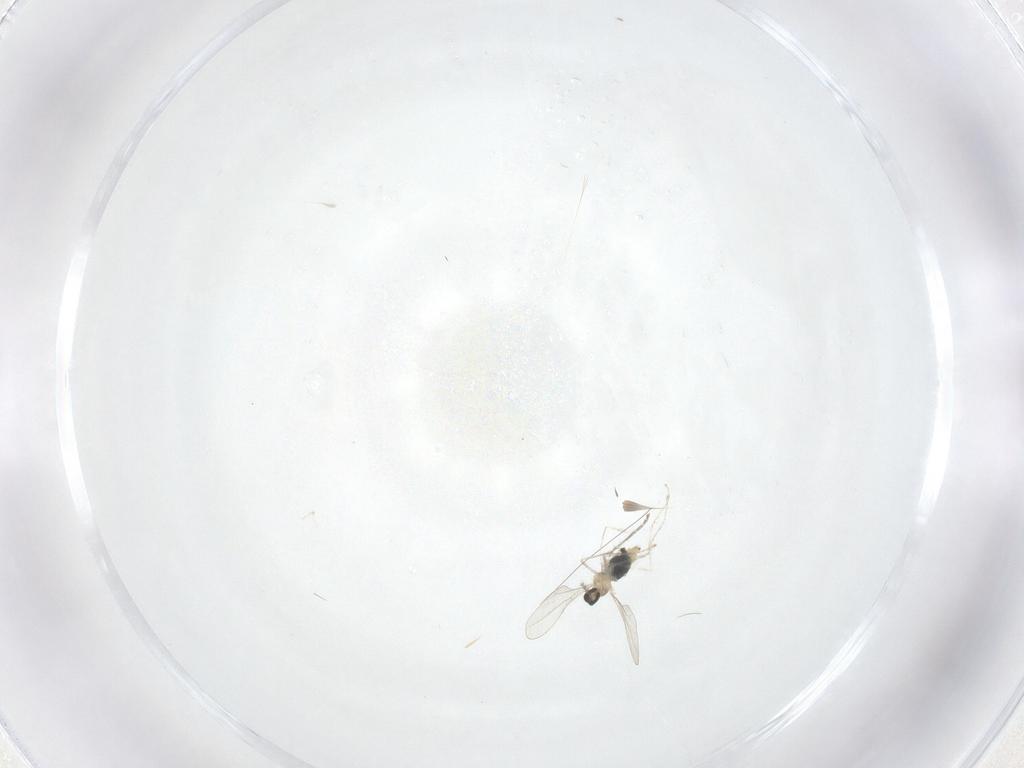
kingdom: Animalia
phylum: Arthropoda
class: Insecta
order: Diptera
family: Cecidomyiidae
